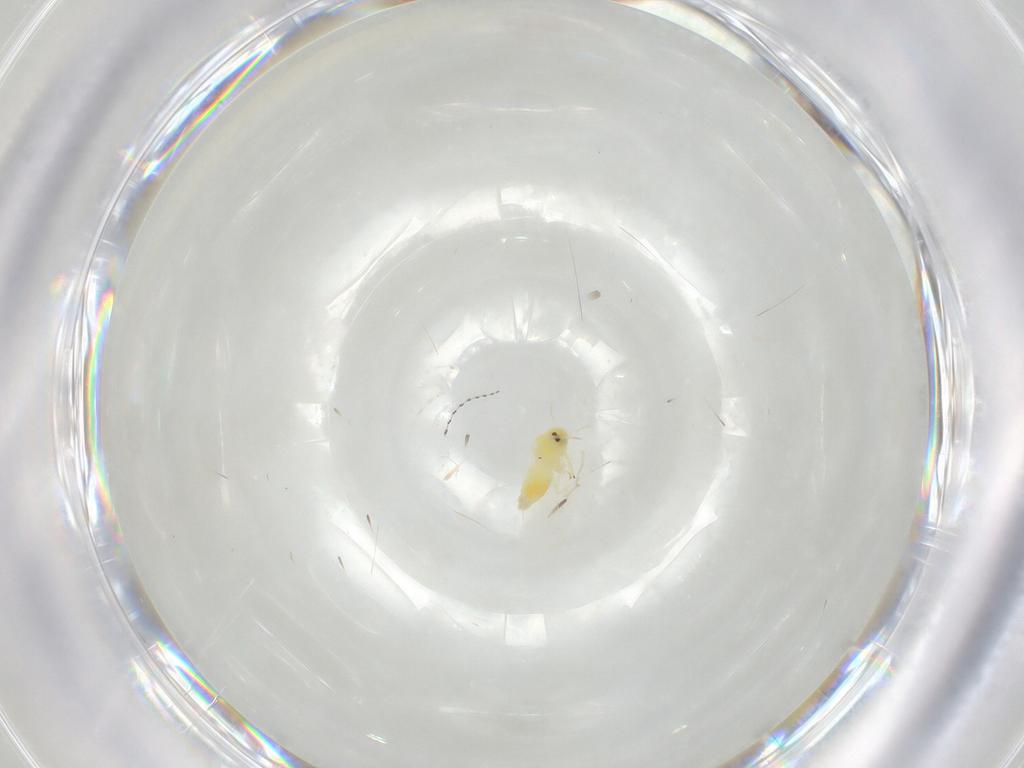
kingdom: Animalia
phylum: Arthropoda
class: Insecta
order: Hemiptera
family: Aleyrodidae
